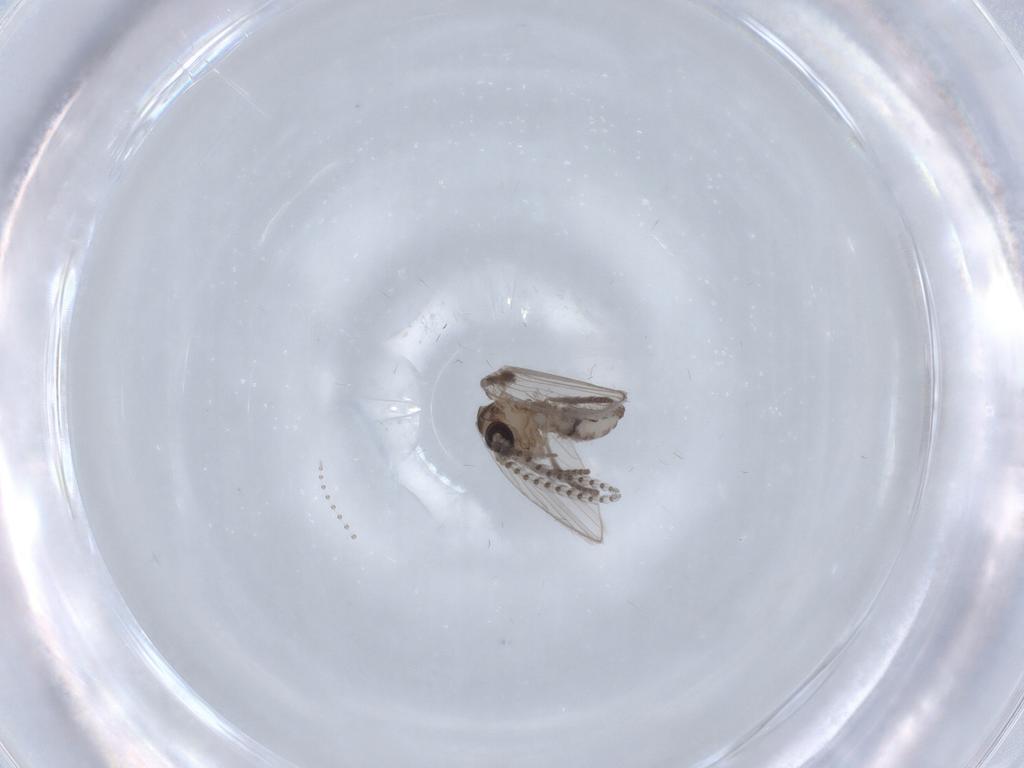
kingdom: Animalia
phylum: Arthropoda
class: Insecta
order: Diptera
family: Psychodidae
